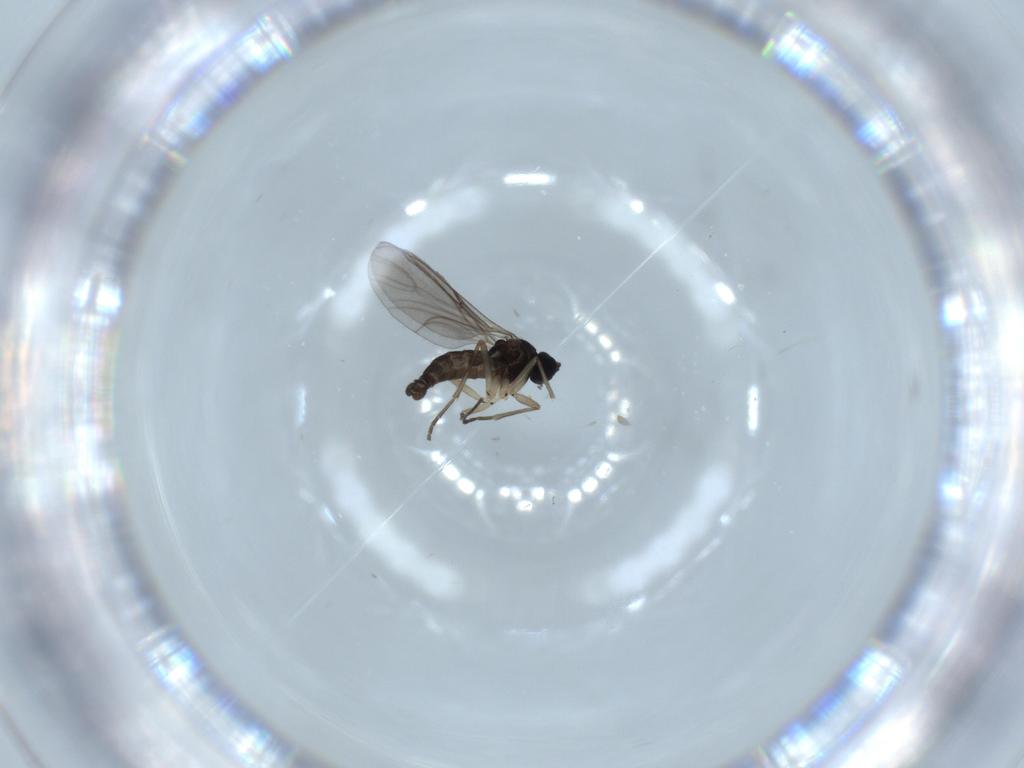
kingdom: Animalia
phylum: Arthropoda
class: Insecta
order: Diptera
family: Sciaridae
